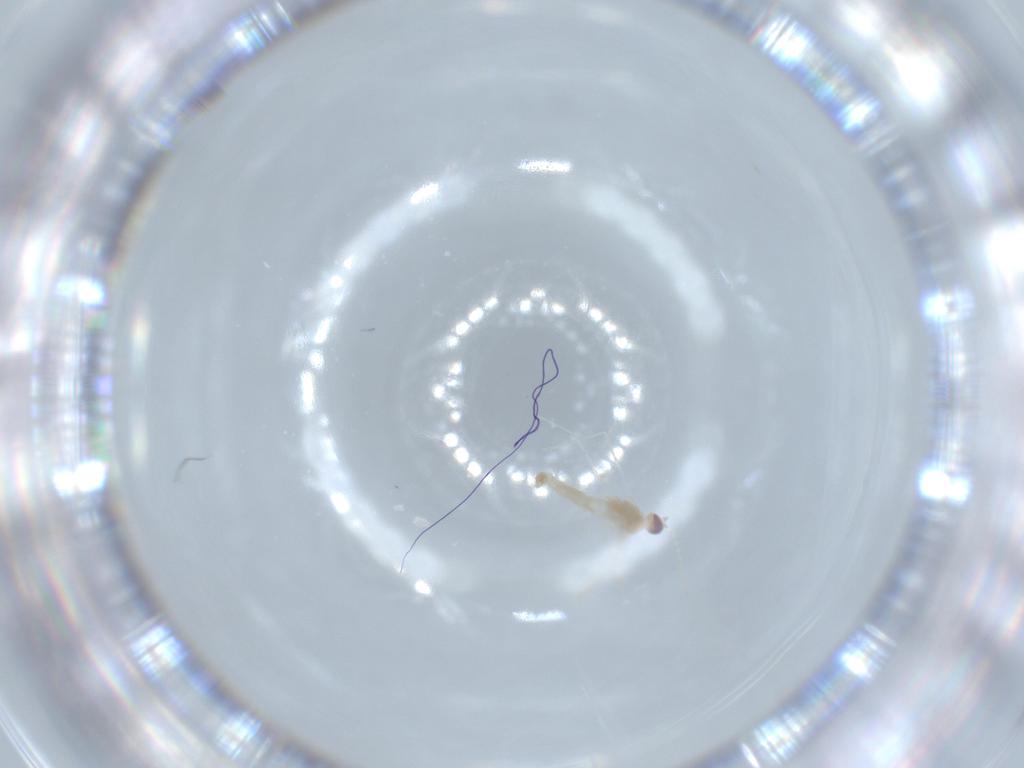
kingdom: Animalia
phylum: Arthropoda
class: Insecta
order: Diptera
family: Cecidomyiidae
